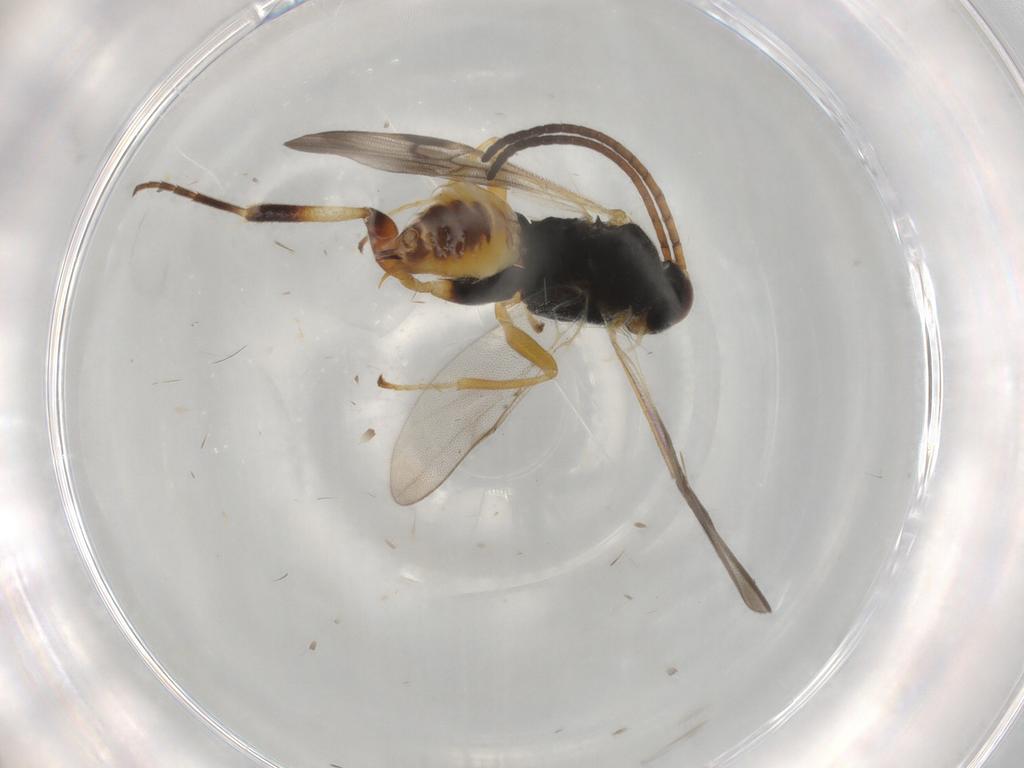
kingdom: Animalia
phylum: Arthropoda
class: Insecta
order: Hymenoptera
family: Braconidae
